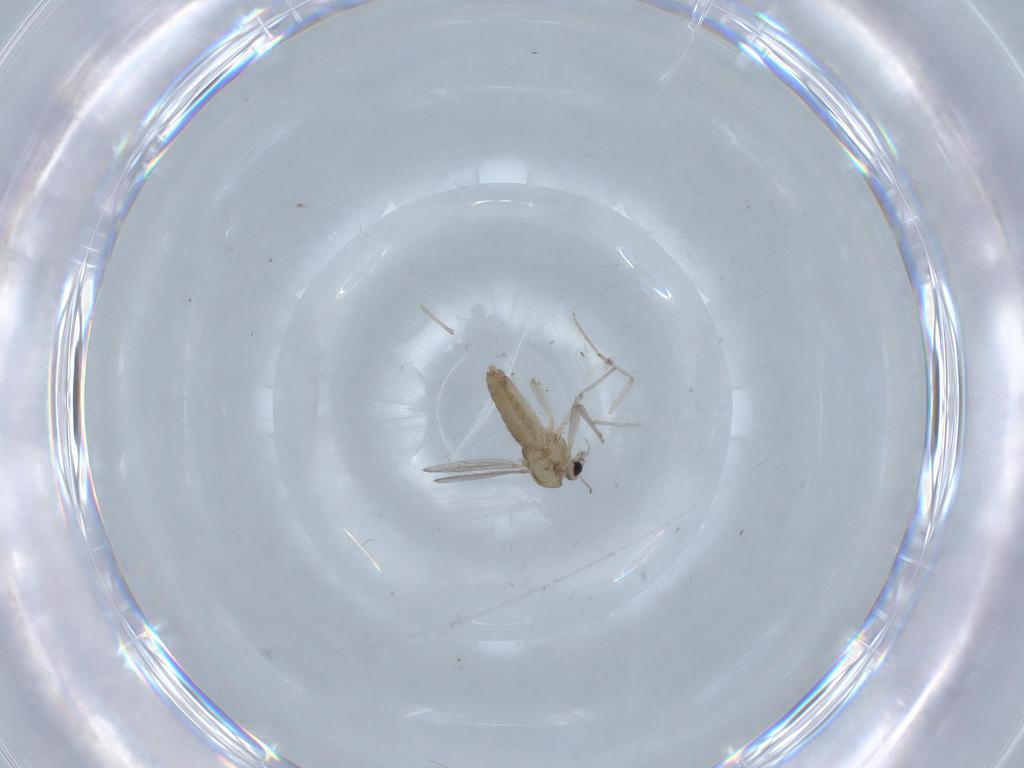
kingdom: Animalia
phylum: Arthropoda
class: Insecta
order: Diptera
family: Chironomidae
